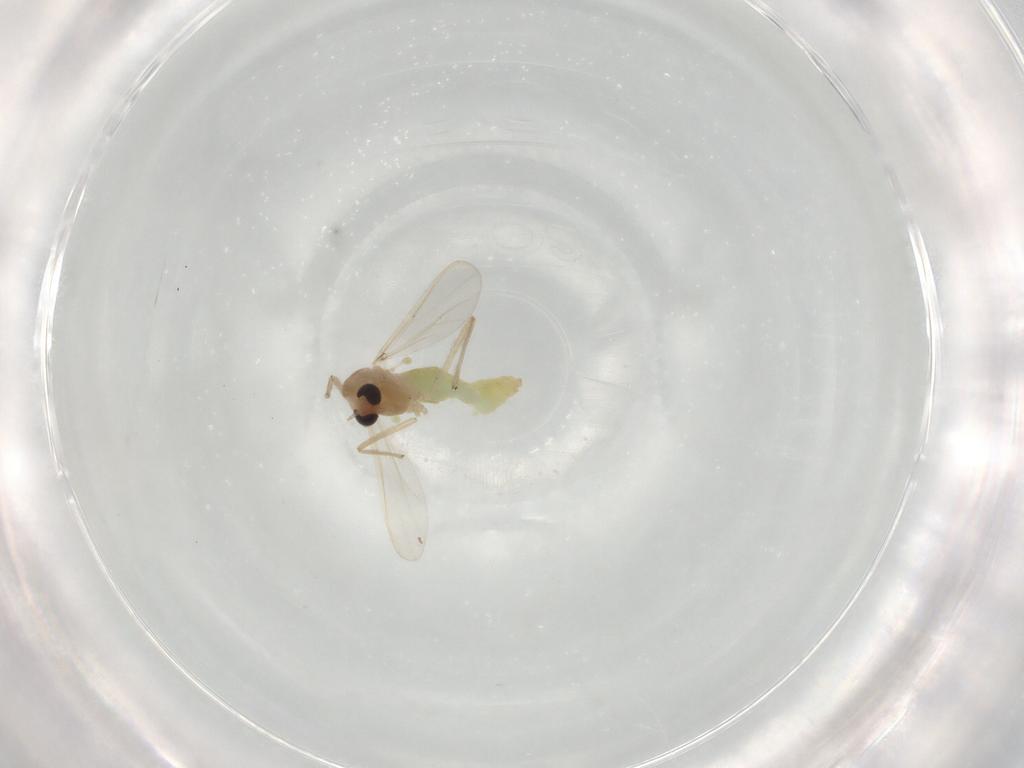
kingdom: Animalia
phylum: Arthropoda
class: Insecta
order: Diptera
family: Chironomidae
